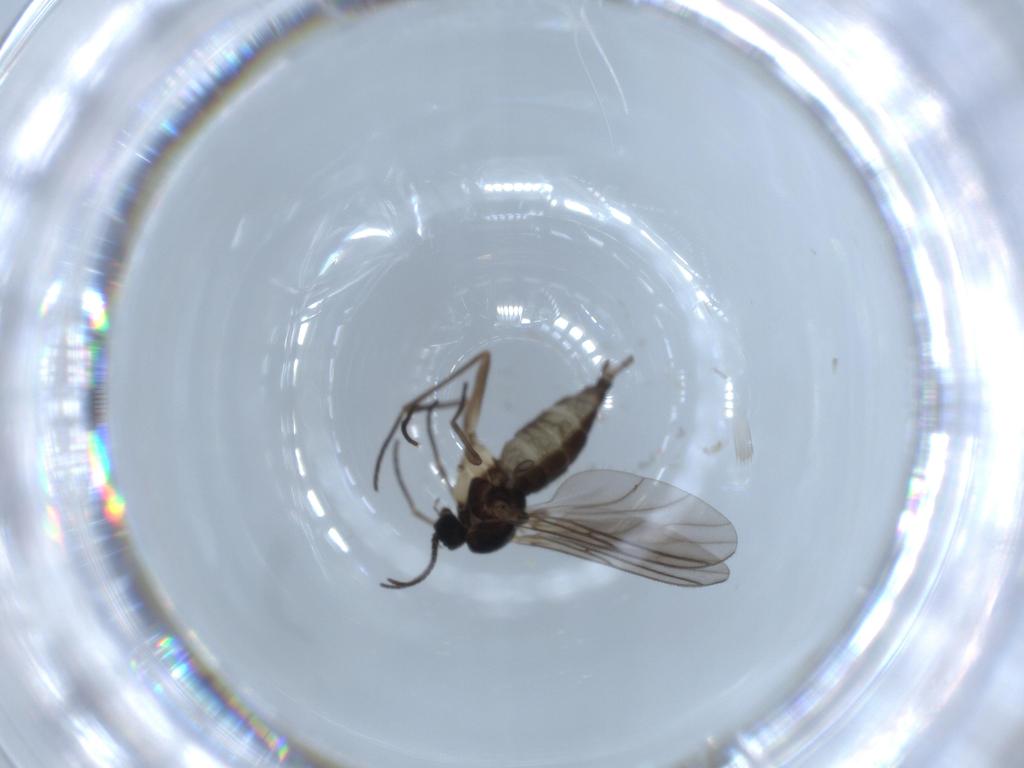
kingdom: Animalia
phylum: Arthropoda
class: Insecta
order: Diptera
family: Sciaridae
